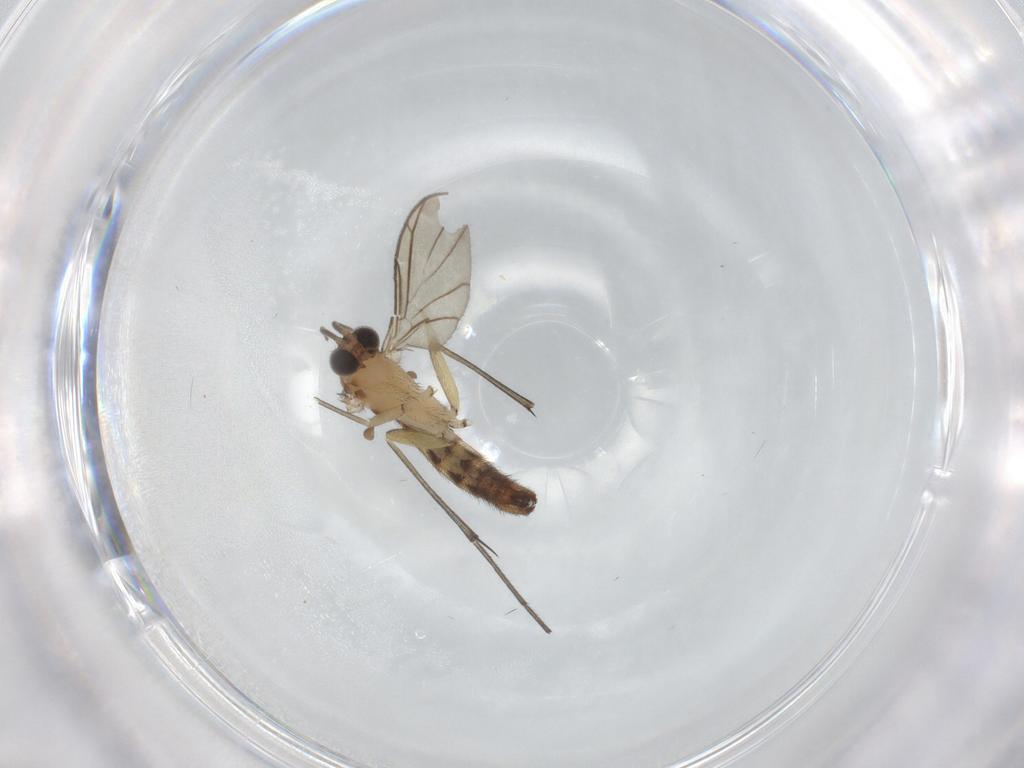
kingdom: Animalia
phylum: Arthropoda
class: Insecta
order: Diptera
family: Keroplatidae
